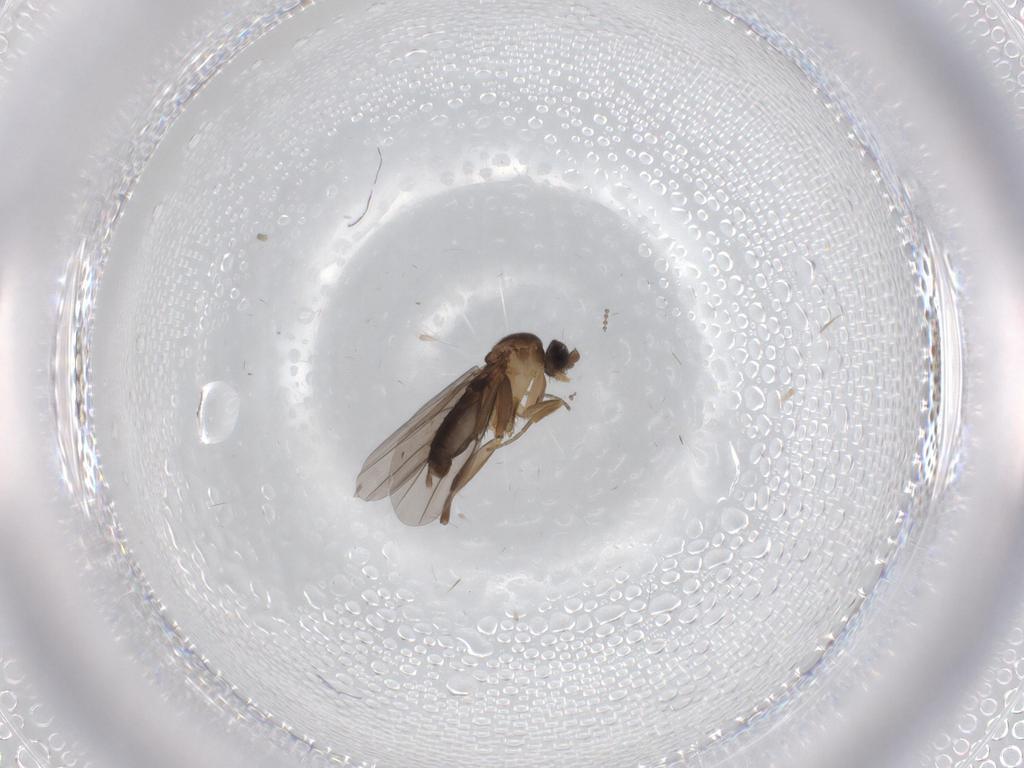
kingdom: Animalia
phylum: Arthropoda
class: Insecta
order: Diptera
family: Phoridae
